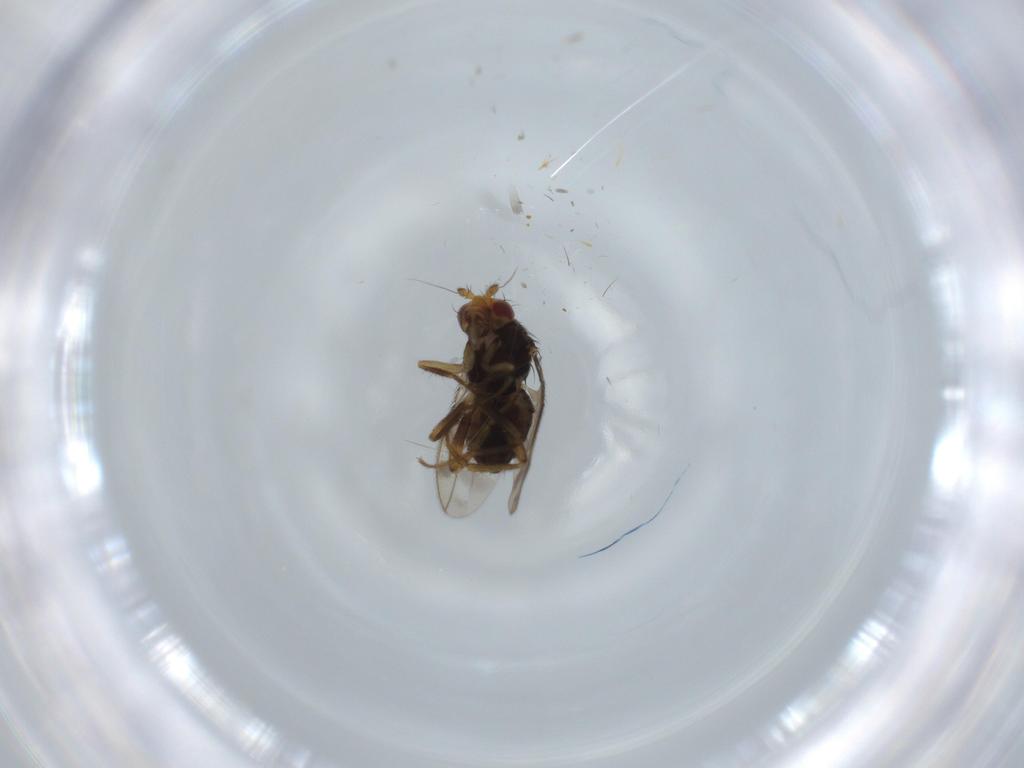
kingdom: Animalia
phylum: Arthropoda
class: Insecta
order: Diptera
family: Sphaeroceridae
